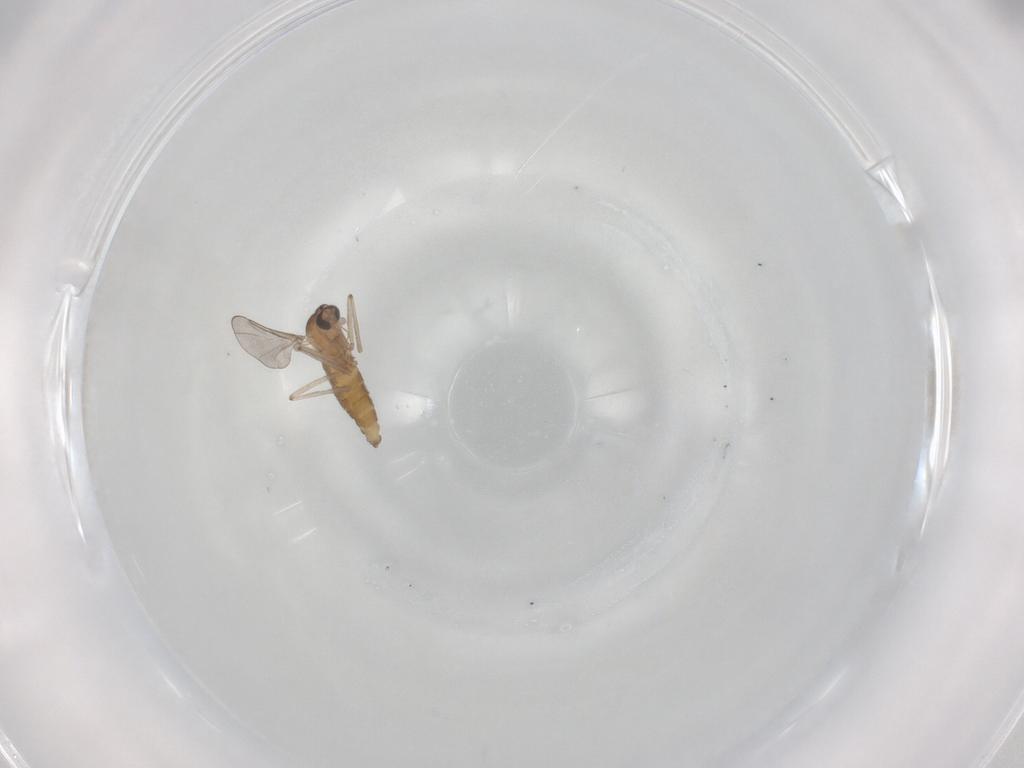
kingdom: Animalia
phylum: Arthropoda
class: Insecta
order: Diptera
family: Cecidomyiidae
